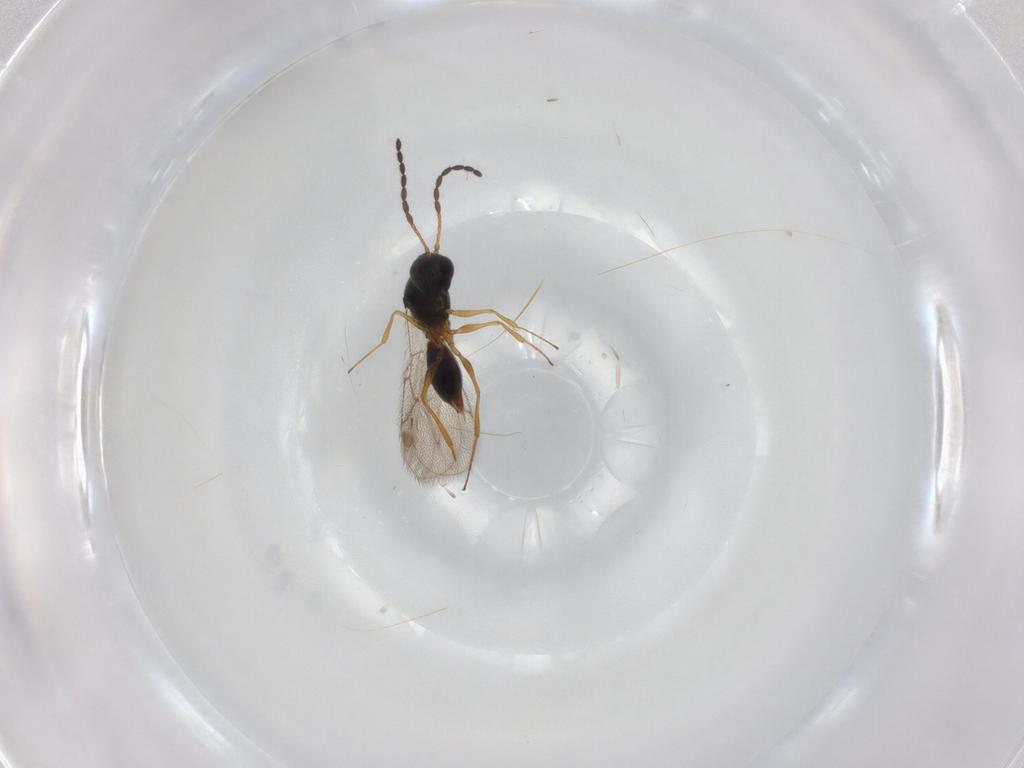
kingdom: Animalia
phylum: Arthropoda
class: Insecta
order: Hymenoptera
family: Figitidae
